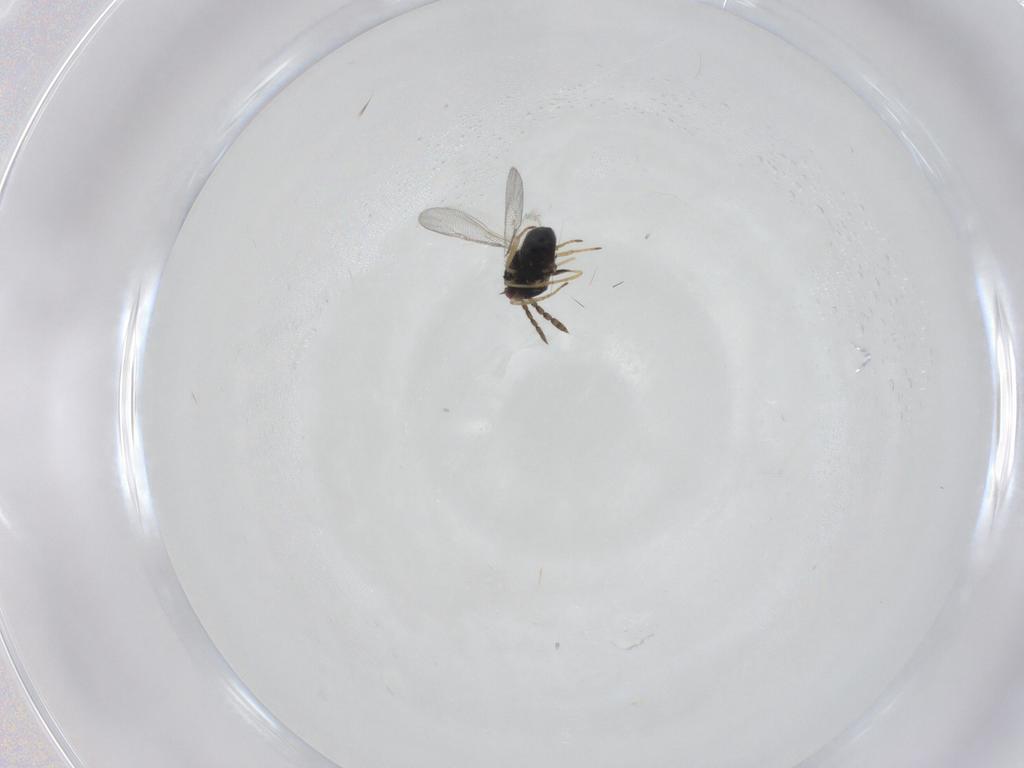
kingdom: Animalia
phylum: Arthropoda
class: Insecta
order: Hymenoptera
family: Eulophidae
